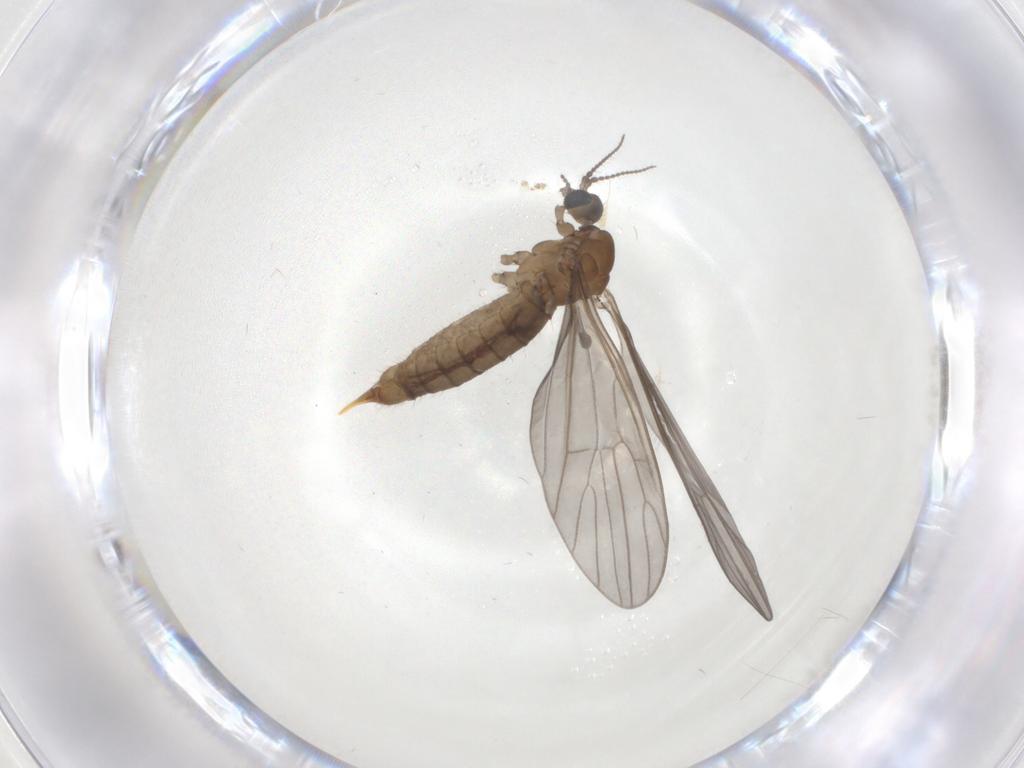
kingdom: Animalia
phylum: Arthropoda
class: Insecta
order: Diptera
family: Limoniidae
